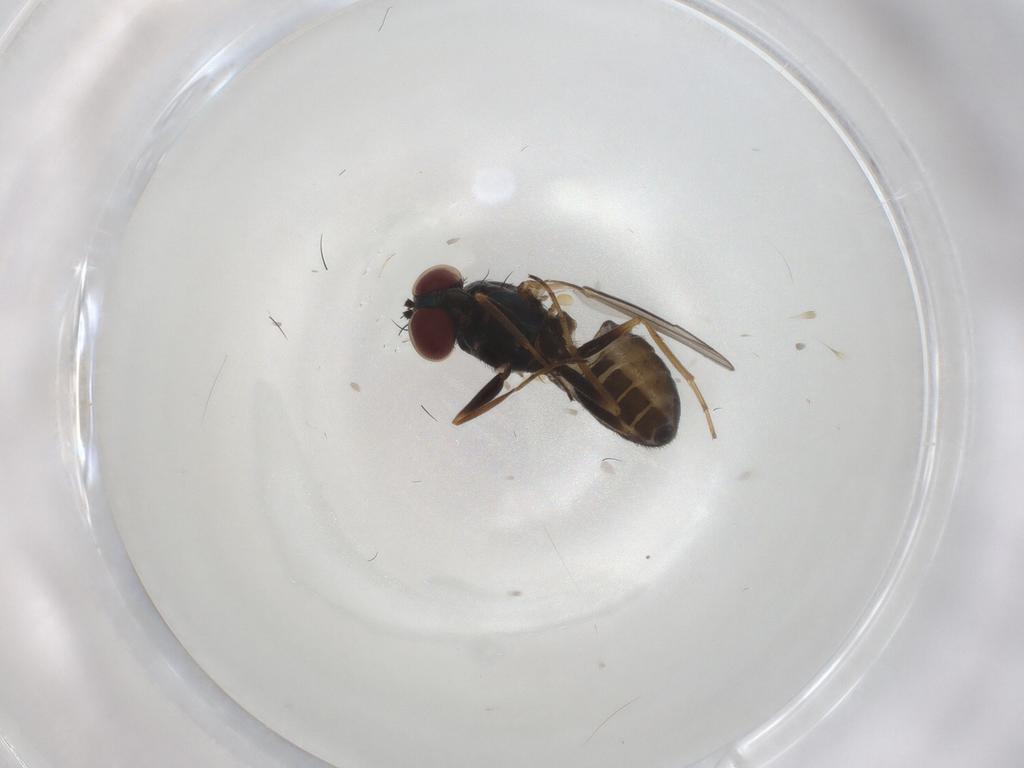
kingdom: Animalia
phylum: Arthropoda
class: Insecta
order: Diptera
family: Dolichopodidae
